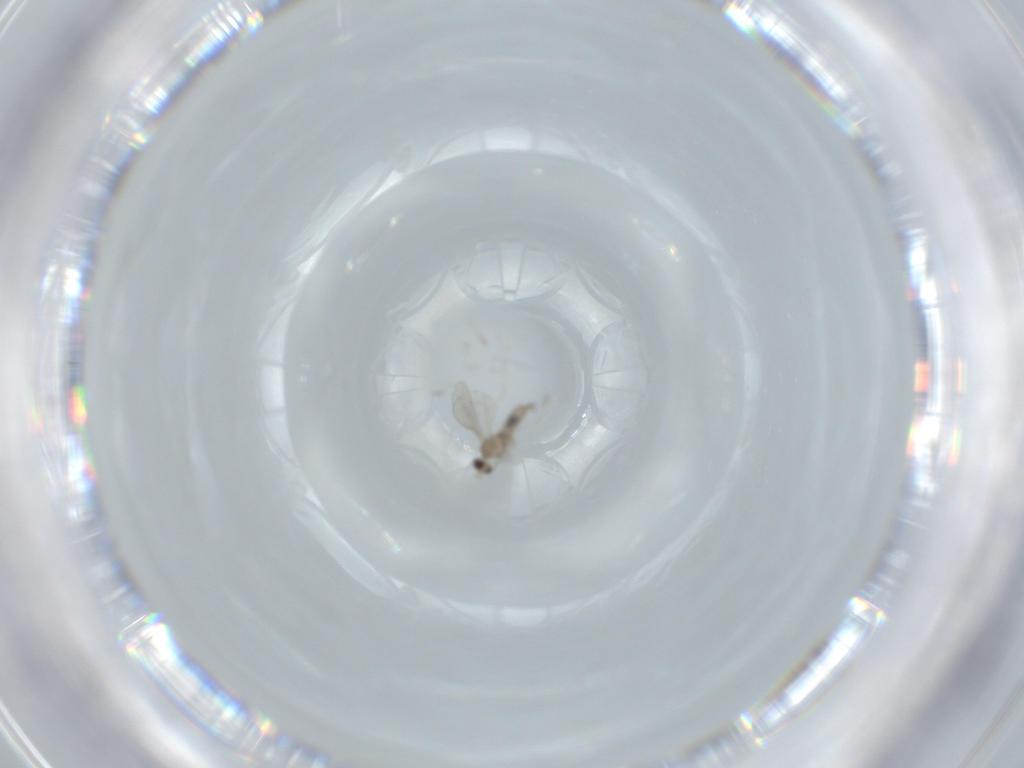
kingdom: Animalia
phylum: Arthropoda
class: Insecta
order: Diptera
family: Cecidomyiidae
